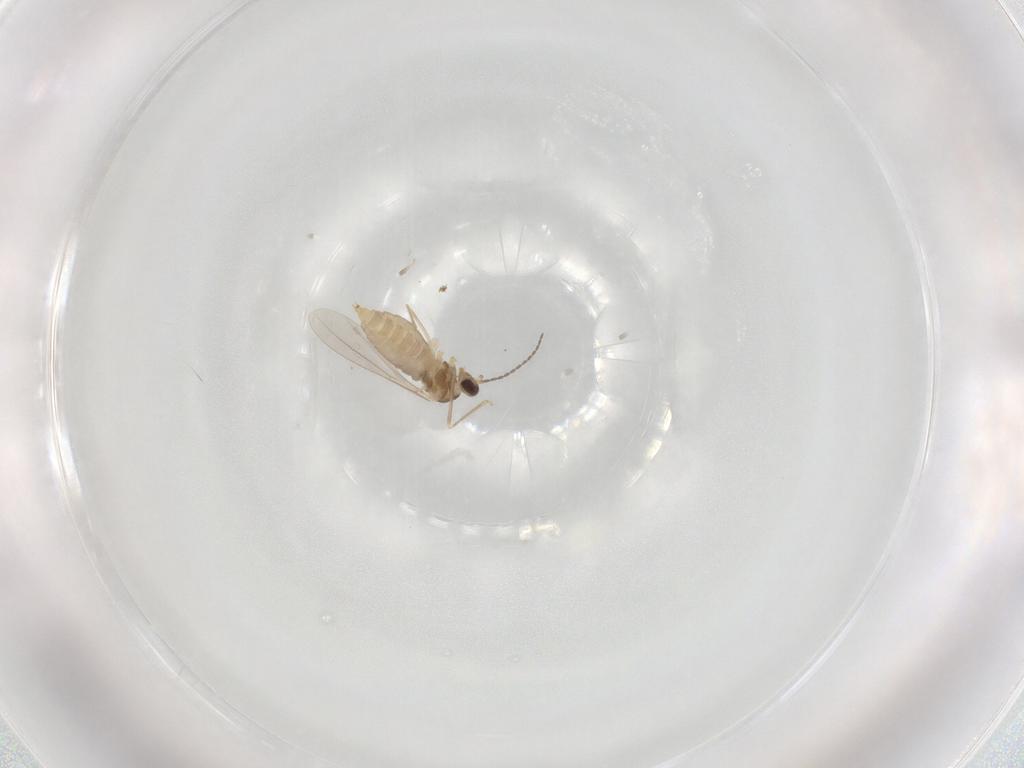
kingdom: Animalia
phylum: Arthropoda
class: Insecta
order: Diptera
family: Cecidomyiidae
